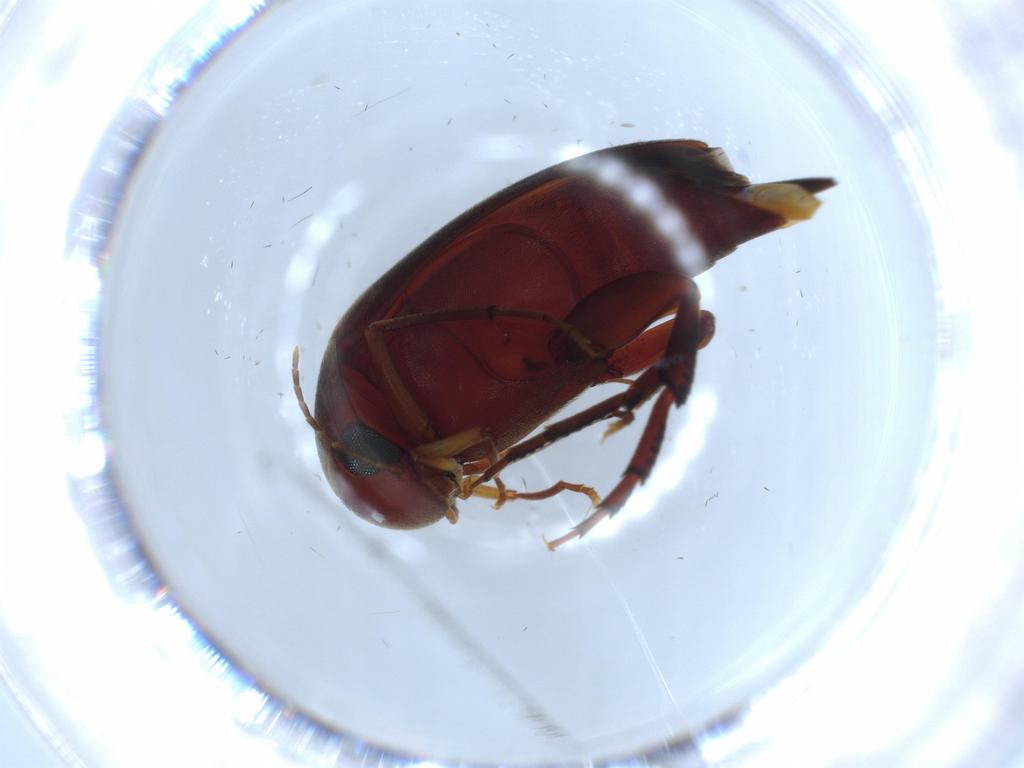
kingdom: Animalia
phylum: Arthropoda
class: Insecta
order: Coleoptera
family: Mordellidae
